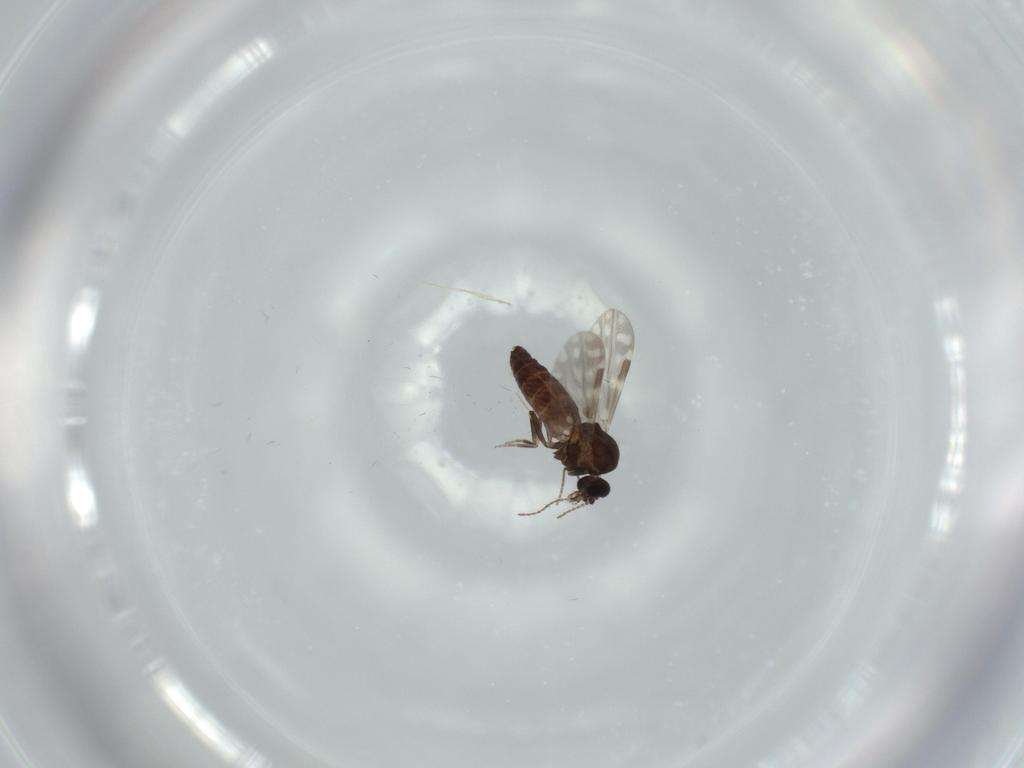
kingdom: Animalia
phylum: Arthropoda
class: Insecta
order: Diptera
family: Ceratopogonidae
